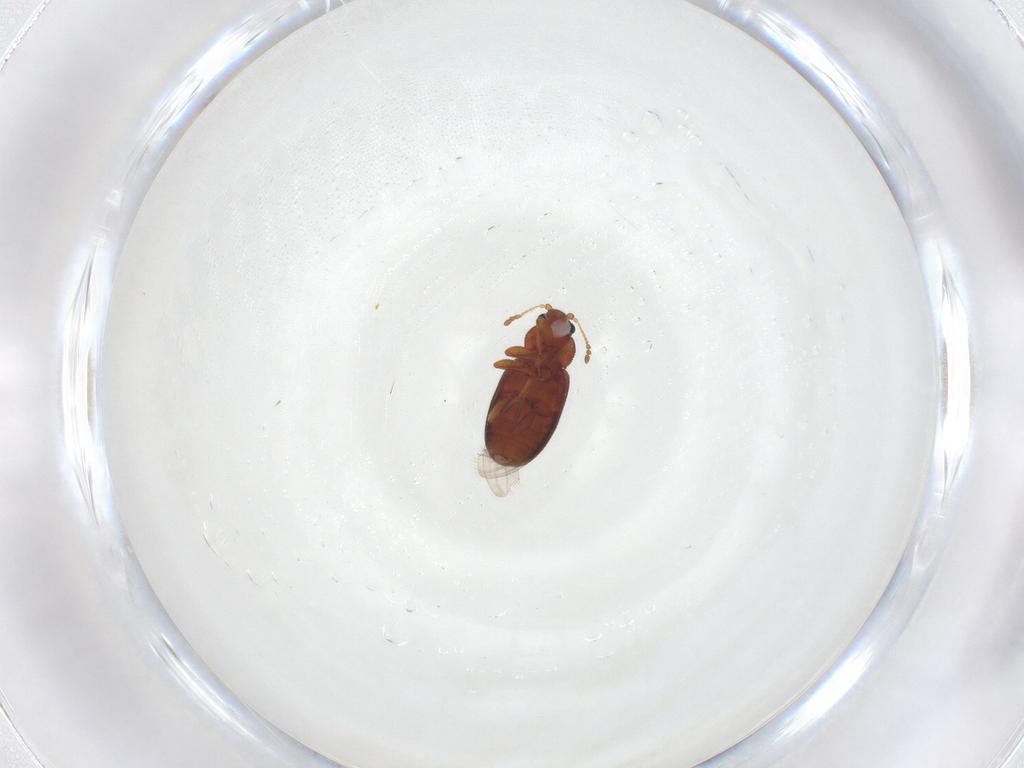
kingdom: Animalia
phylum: Arthropoda
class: Insecta
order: Coleoptera
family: Latridiidae
